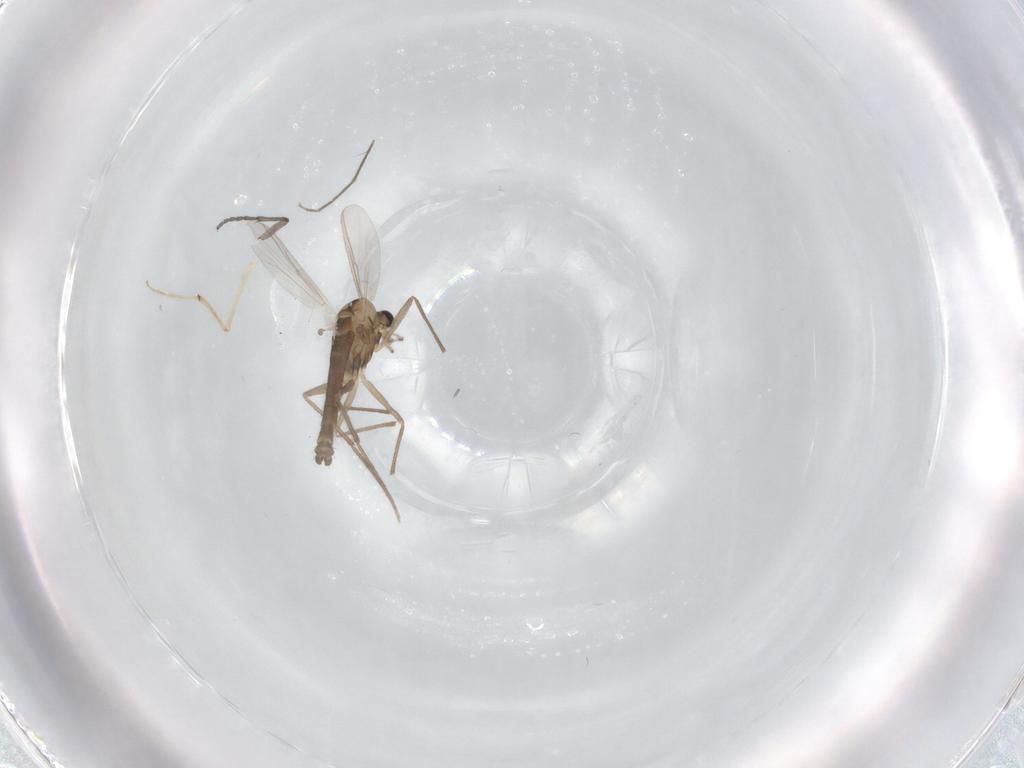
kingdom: Animalia
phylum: Arthropoda
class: Insecta
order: Diptera
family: Chironomidae
